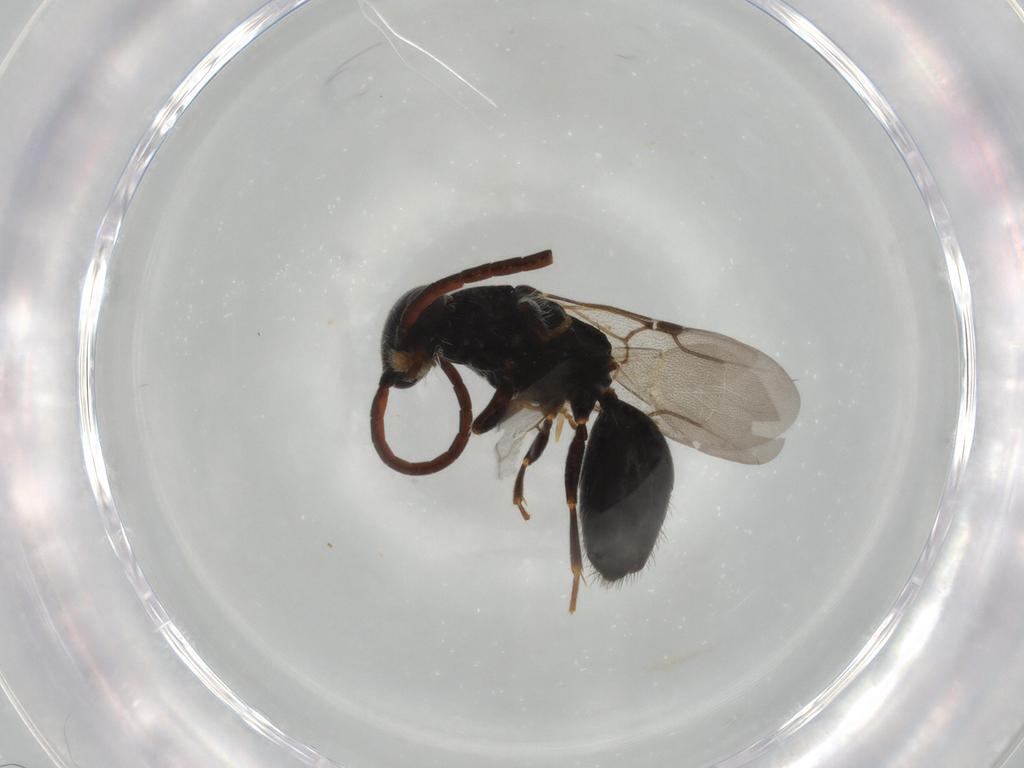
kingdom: Animalia
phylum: Arthropoda
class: Insecta
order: Hymenoptera
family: Bethylidae
